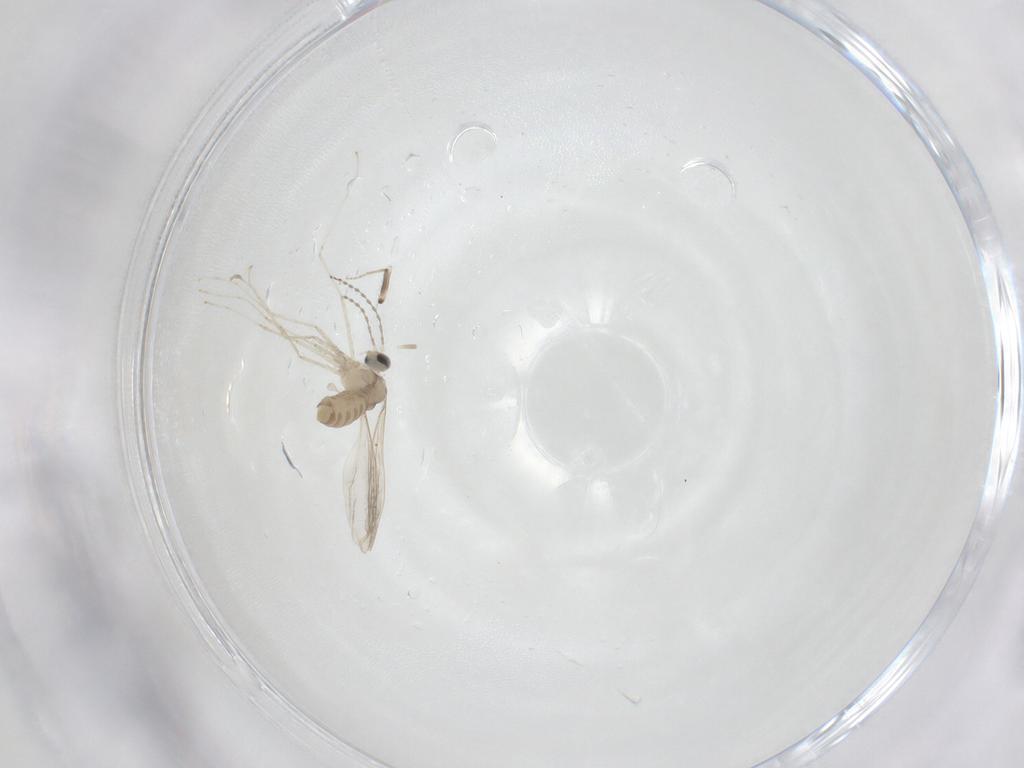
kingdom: Animalia
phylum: Arthropoda
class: Insecta
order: Diptera
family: Cecidomyiidae
